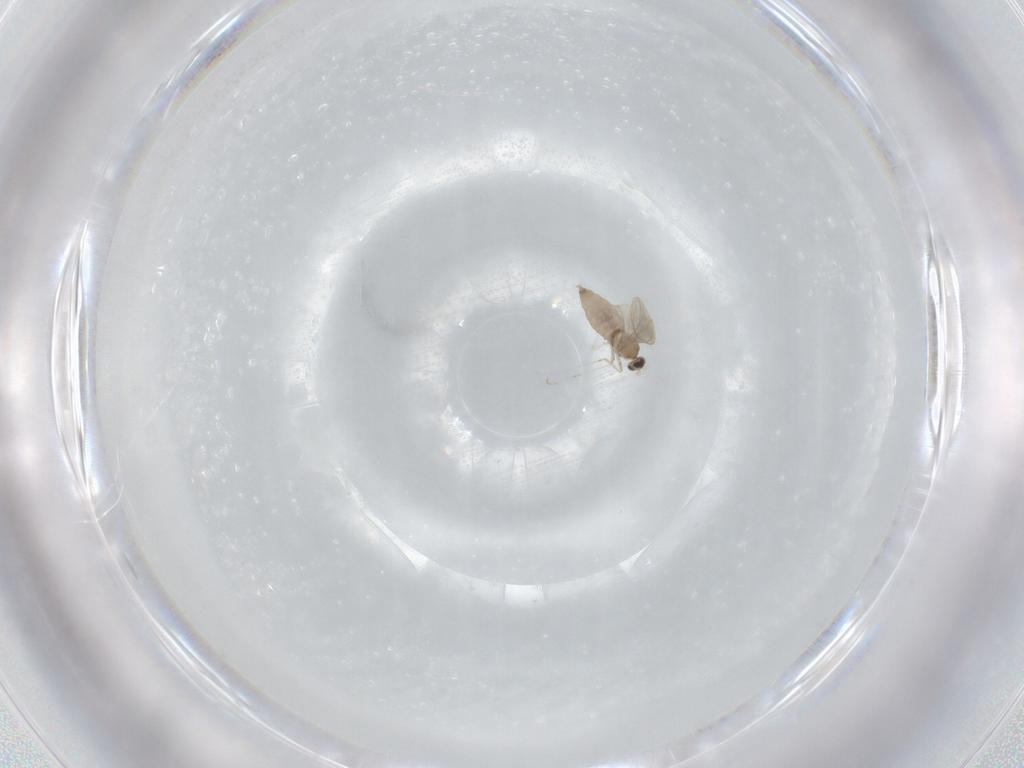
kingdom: Animalia
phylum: Arthropoda
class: Insecta
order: Diptera
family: Cecidomyiidae
